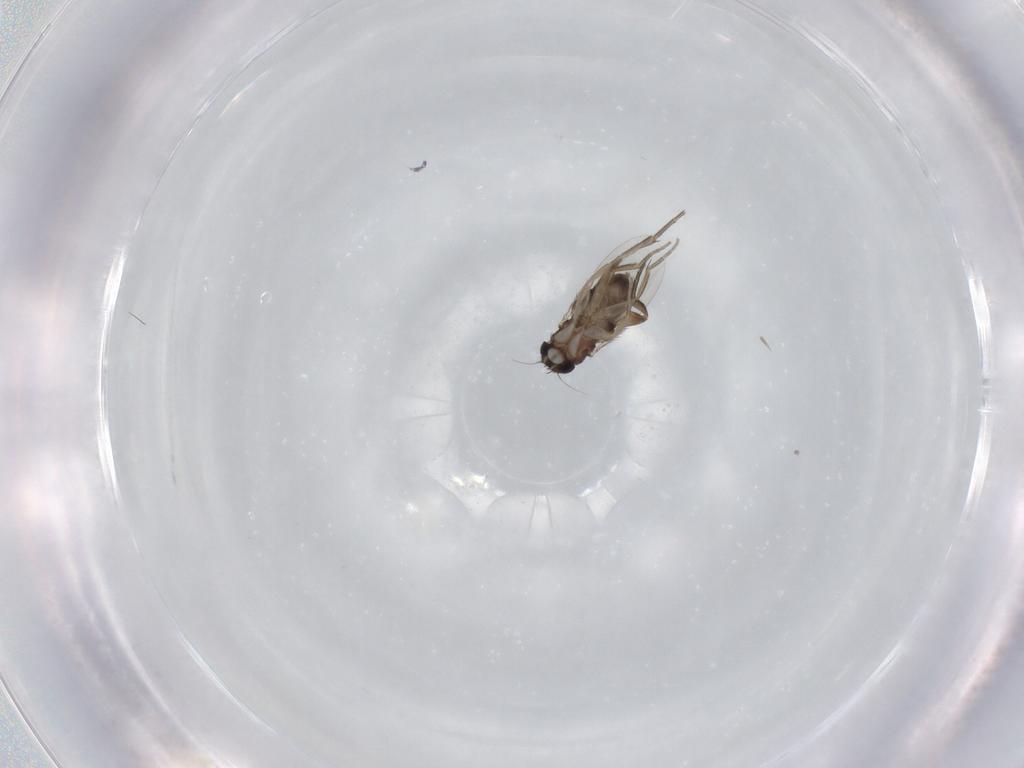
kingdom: Animalia
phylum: Arthropoda
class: Insecta
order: Diptera
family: Phoridae
